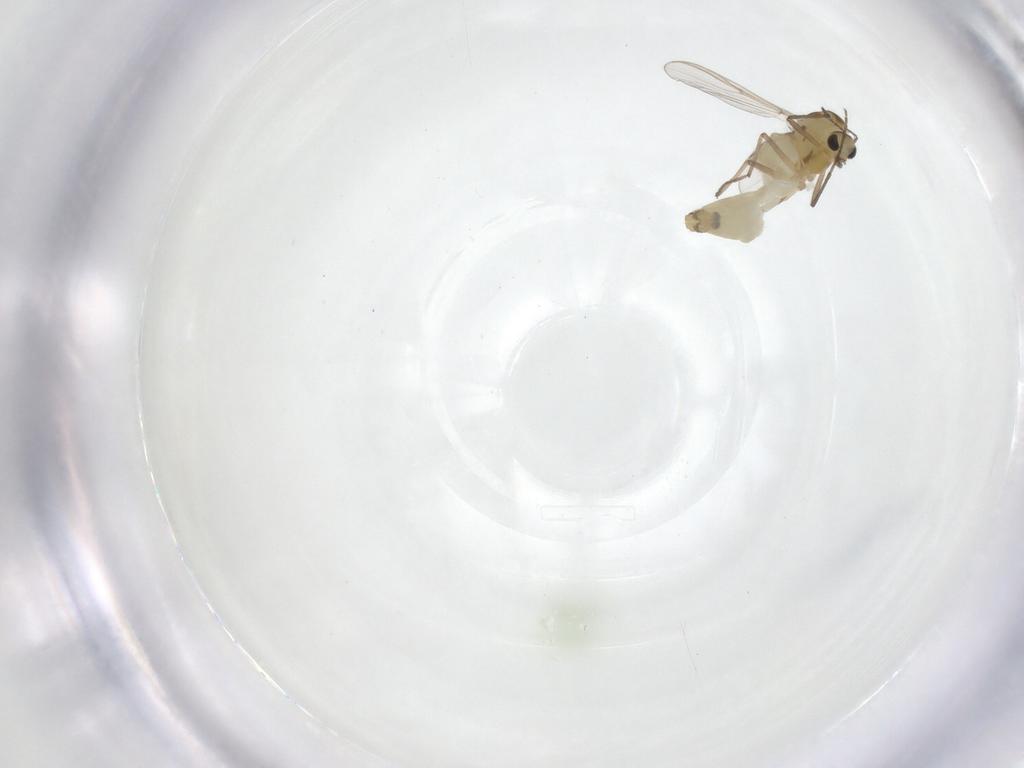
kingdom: Animalia
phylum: Arthropoda
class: Insecta
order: Diptera
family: Chironomidae
